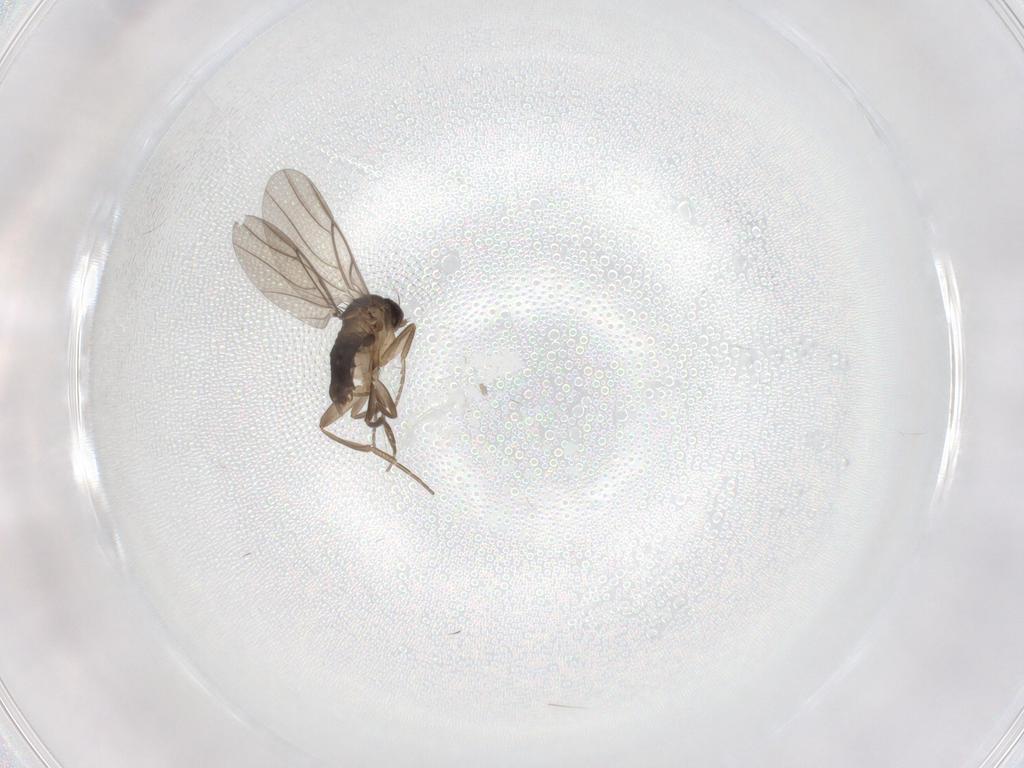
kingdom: Animalia
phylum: Arthropoda
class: Insecta
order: Diptera
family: Phoridae
